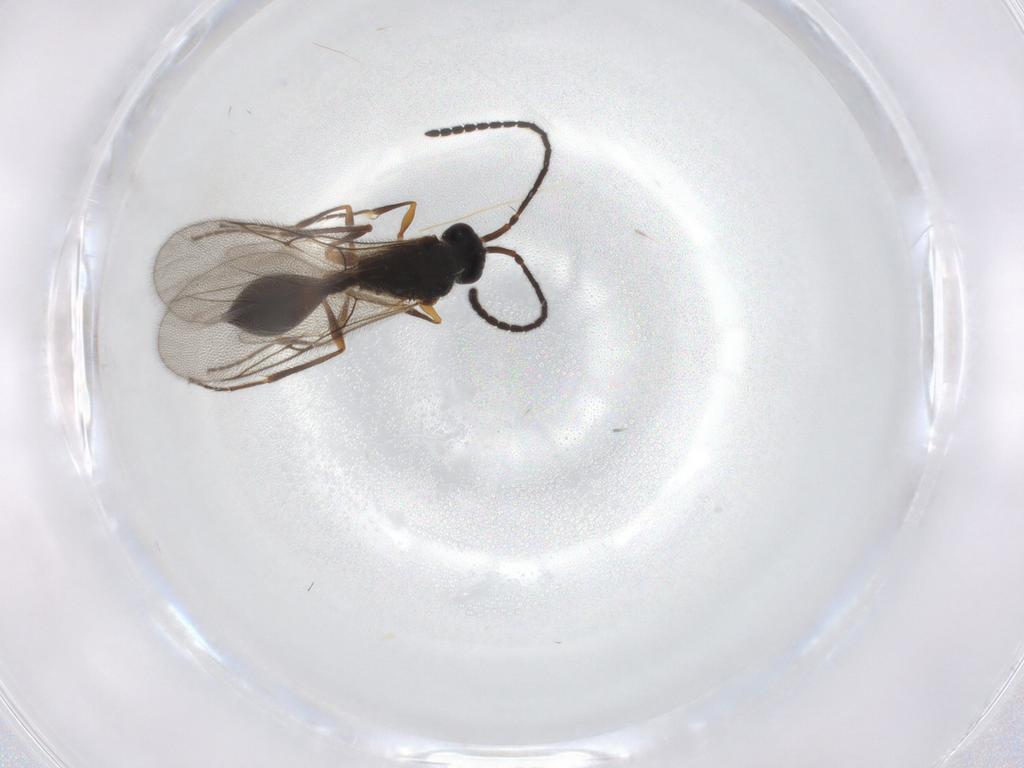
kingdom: Animalia
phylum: Arthropoda
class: Insecta
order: Hymenoptera
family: Diapriidae
